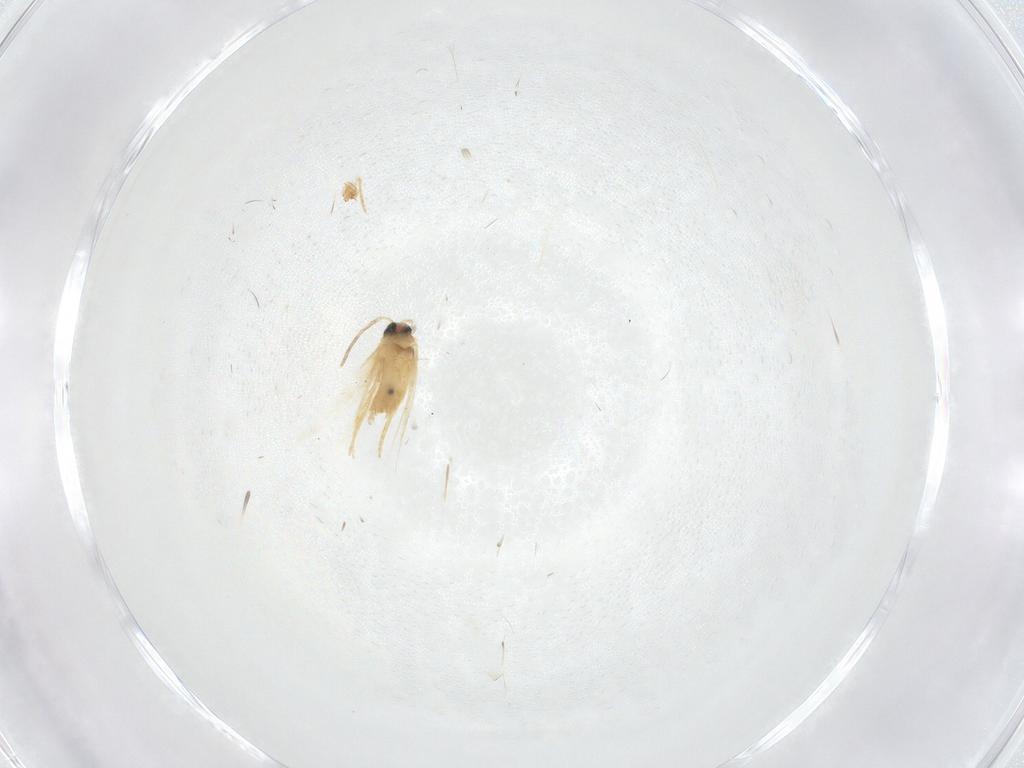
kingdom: Animalia
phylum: Arthropoda
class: Insecta
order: Lepidoptera
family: Crambidae
